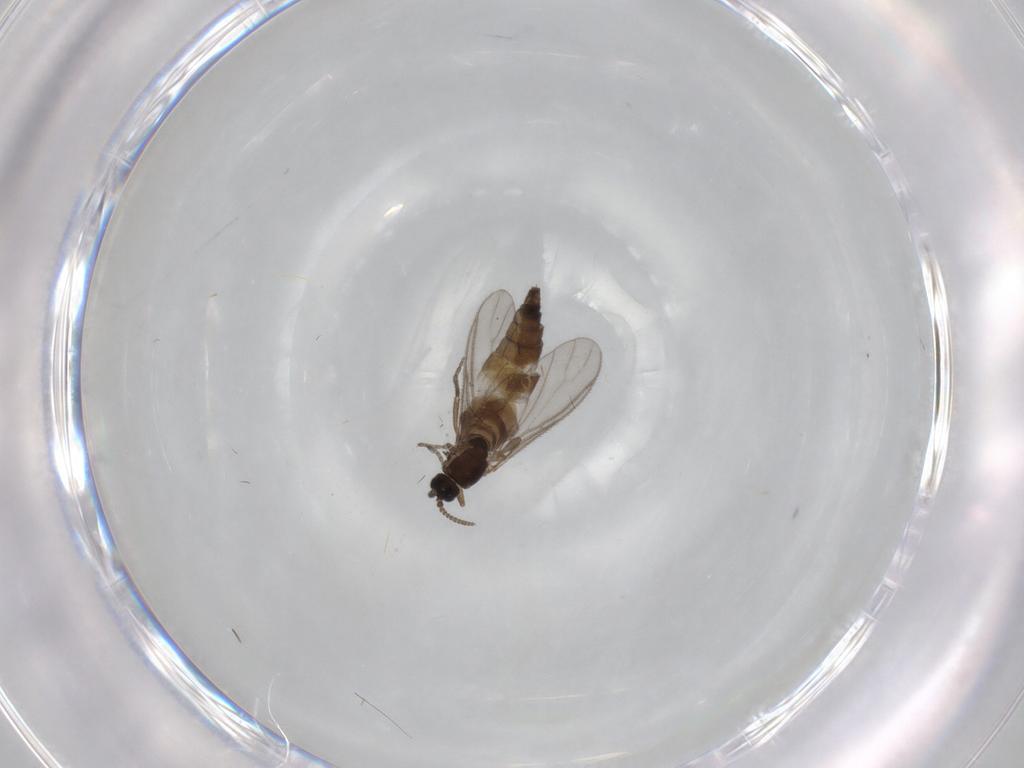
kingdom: Animalia
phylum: Arthropoda
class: Insecta
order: Diptera
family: Sciaridae
